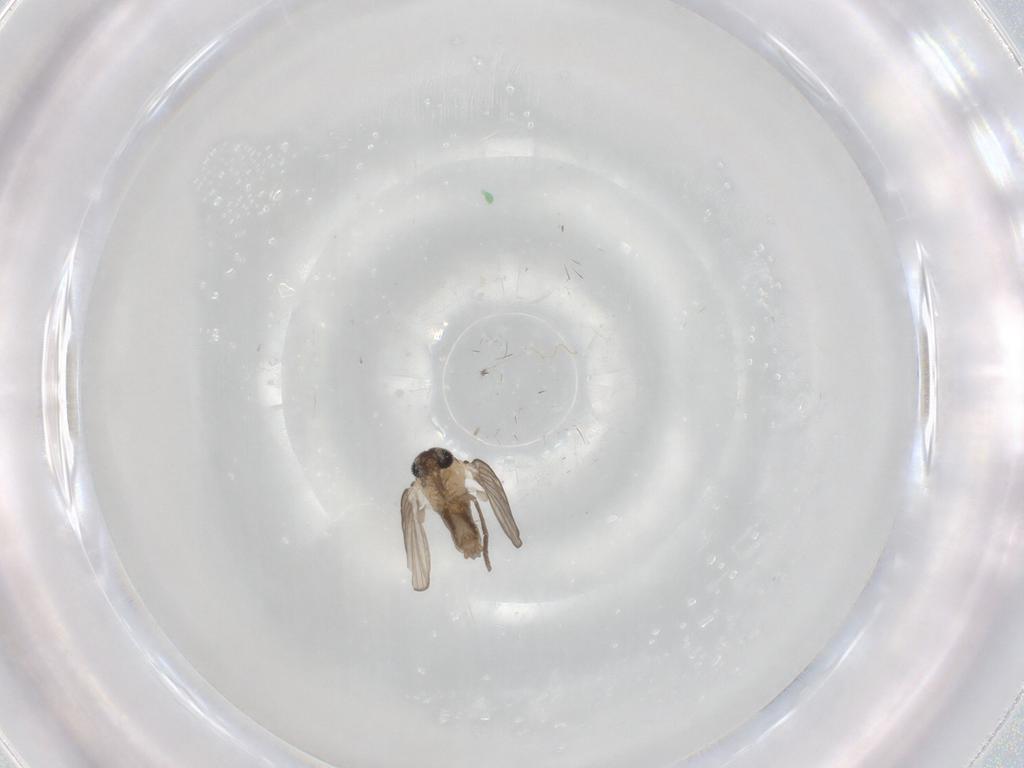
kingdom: Animalia
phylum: Arthropoda
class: Insecta
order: Diptera
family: Psychodidae
